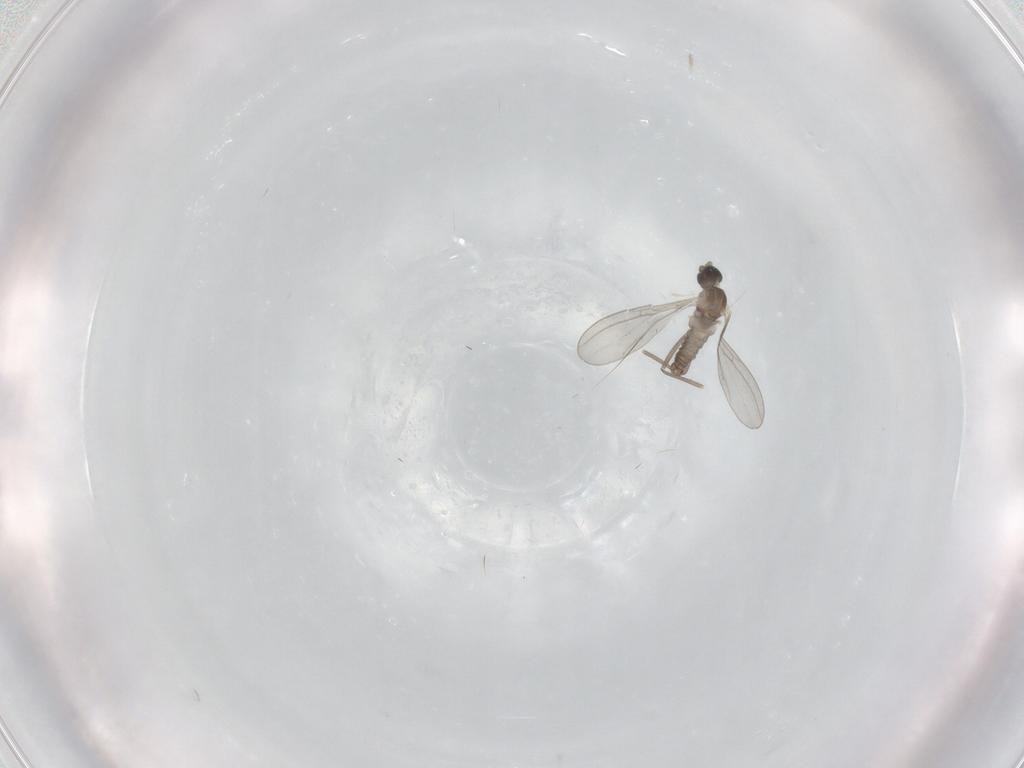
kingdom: Animalia
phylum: Arthropoda
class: Insecta
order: Diptera
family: Cecidomyiidae
